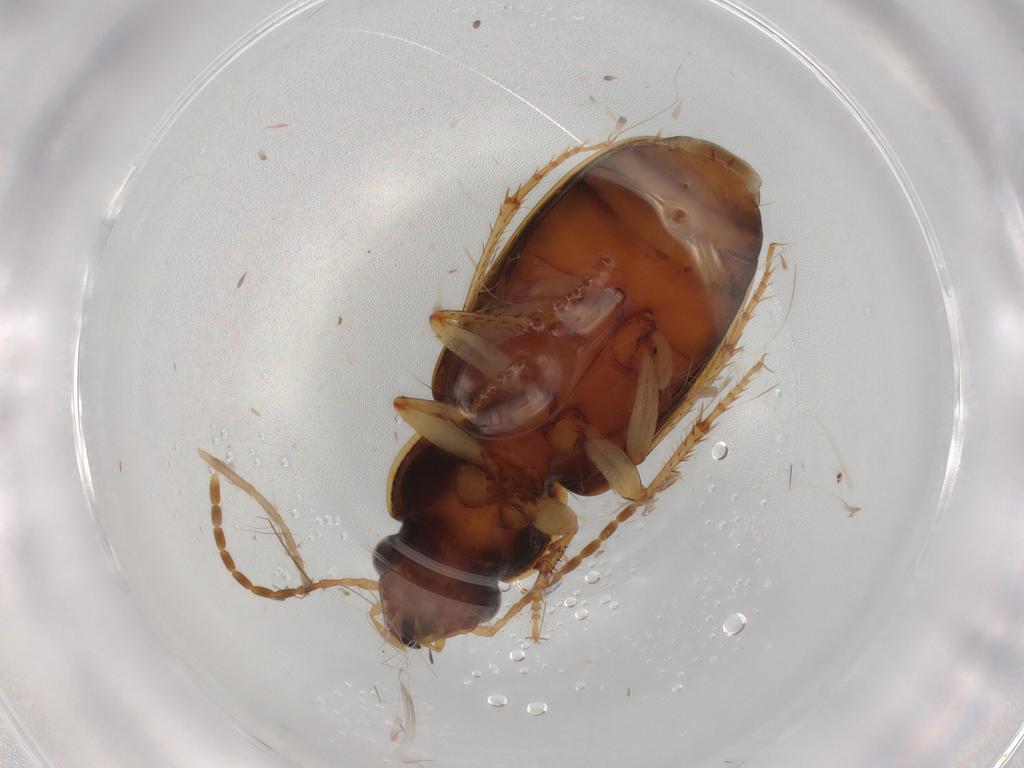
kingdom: Animalia
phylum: Arthropoda
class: Insecta
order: Coleoptera
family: Carabidae
